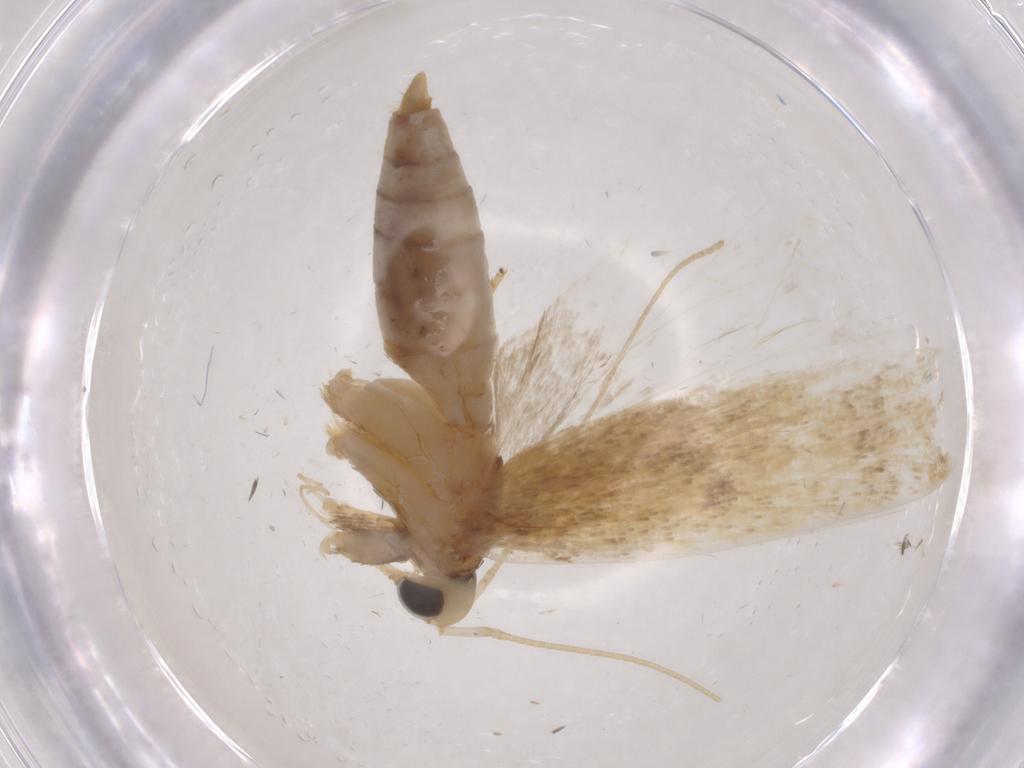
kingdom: Animalia
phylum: Arthropoda
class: Insecta
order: Lepidoptera
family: Autostichidae
